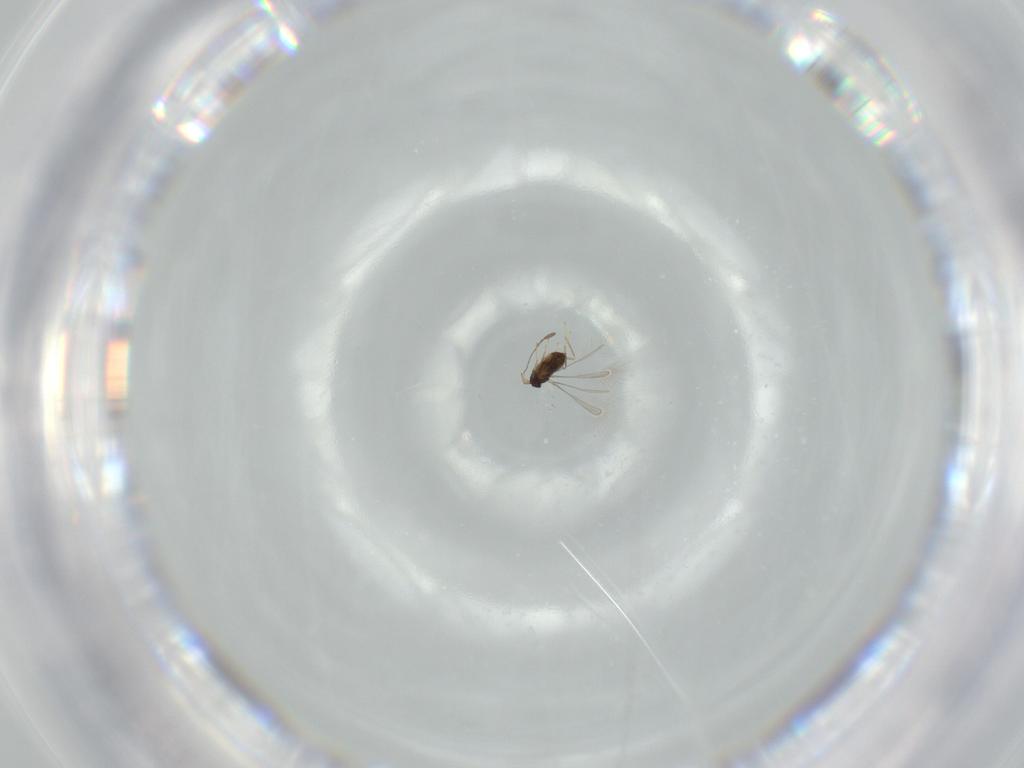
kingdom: Animalia
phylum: Arthropoda
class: Insecta
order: Hymenoptera
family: Mymaridae
